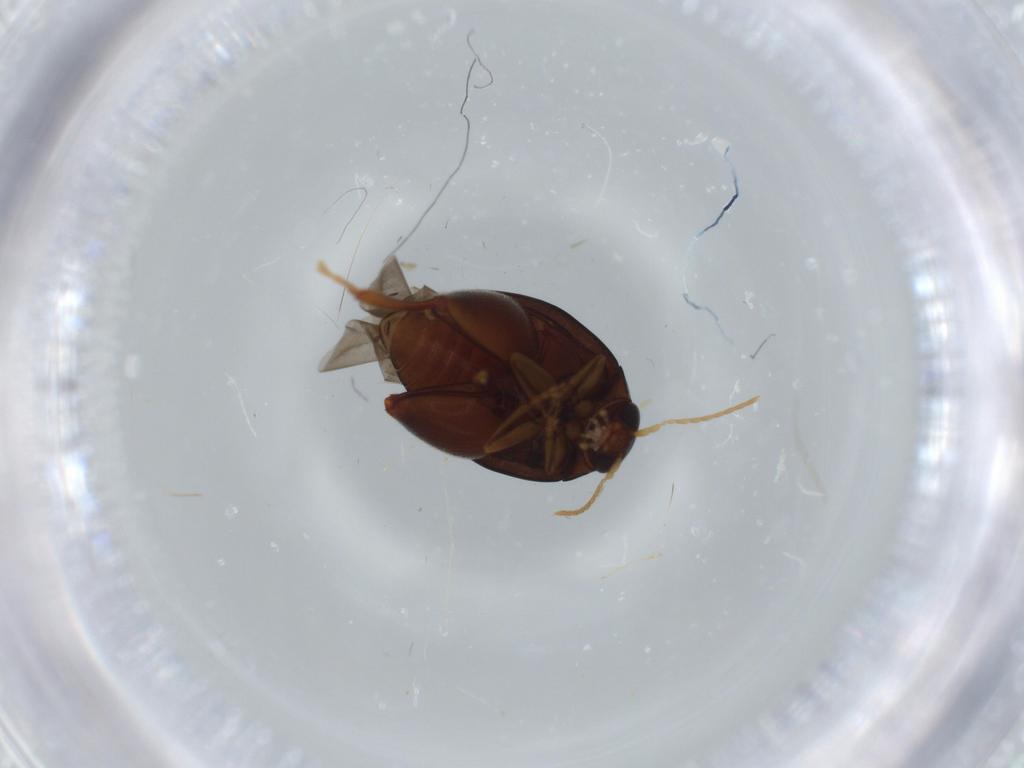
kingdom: Animalia
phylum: Arthropoda
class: Insecta
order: Coleoptera
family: Chrysomelidae
